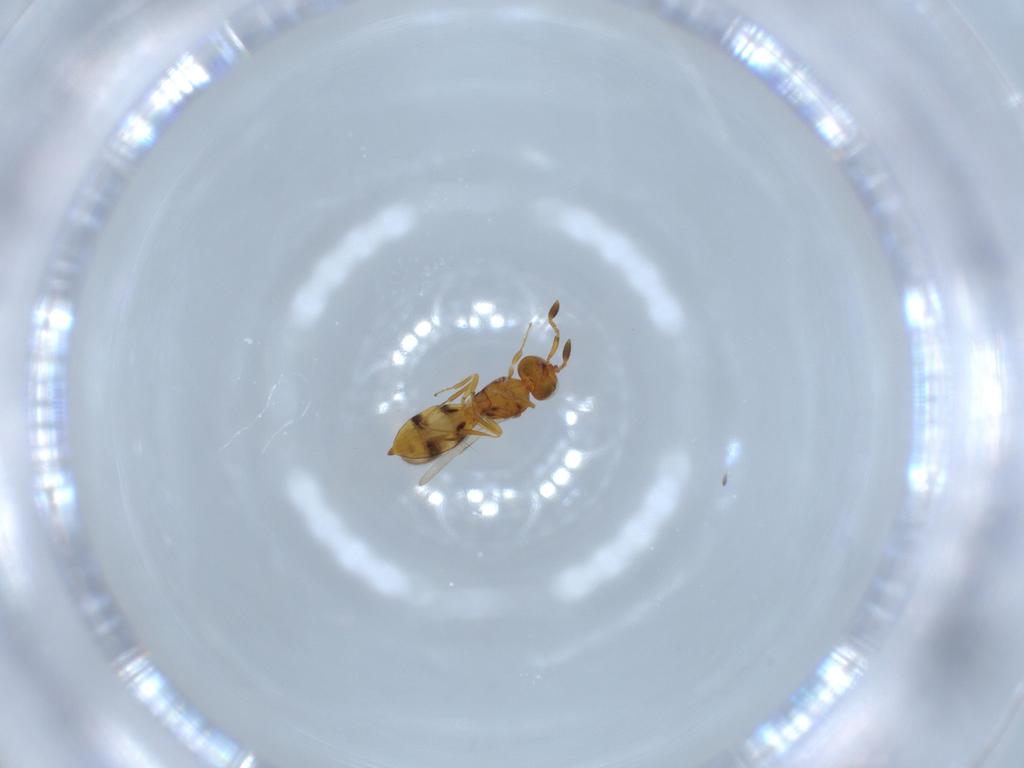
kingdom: Animalia
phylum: Arthropoda
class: Insecta
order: Hymenoptera
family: Scelionidae
